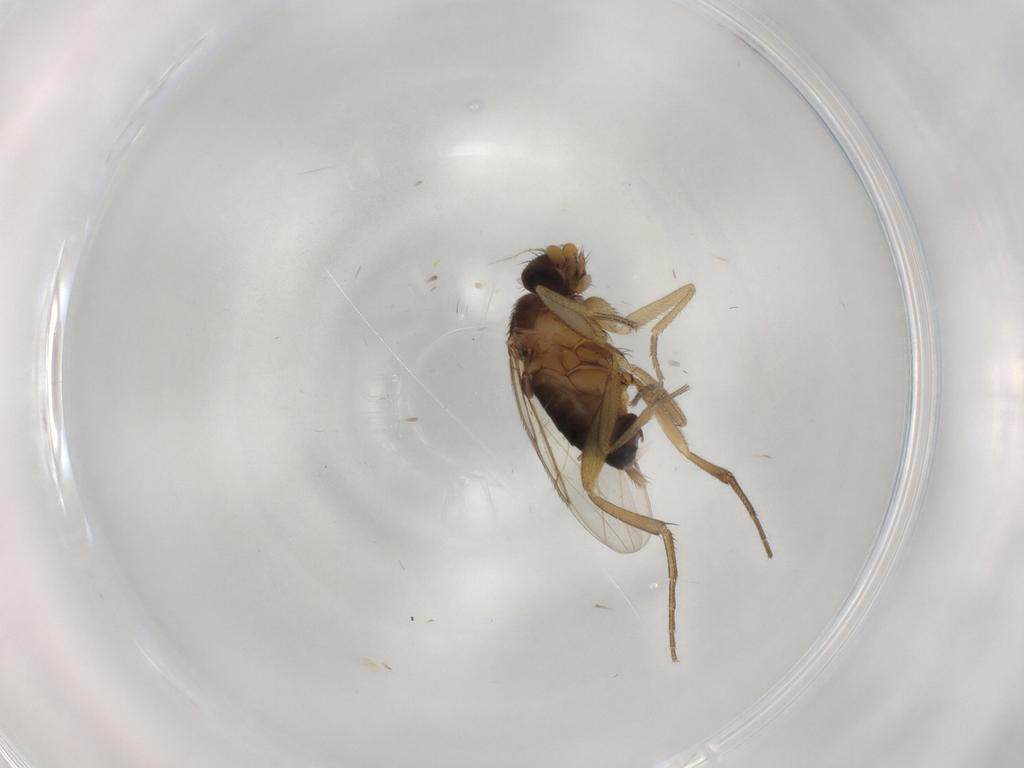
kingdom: Animalia
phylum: Arthropoda
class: Insecta
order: Diptera
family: Phoridae
